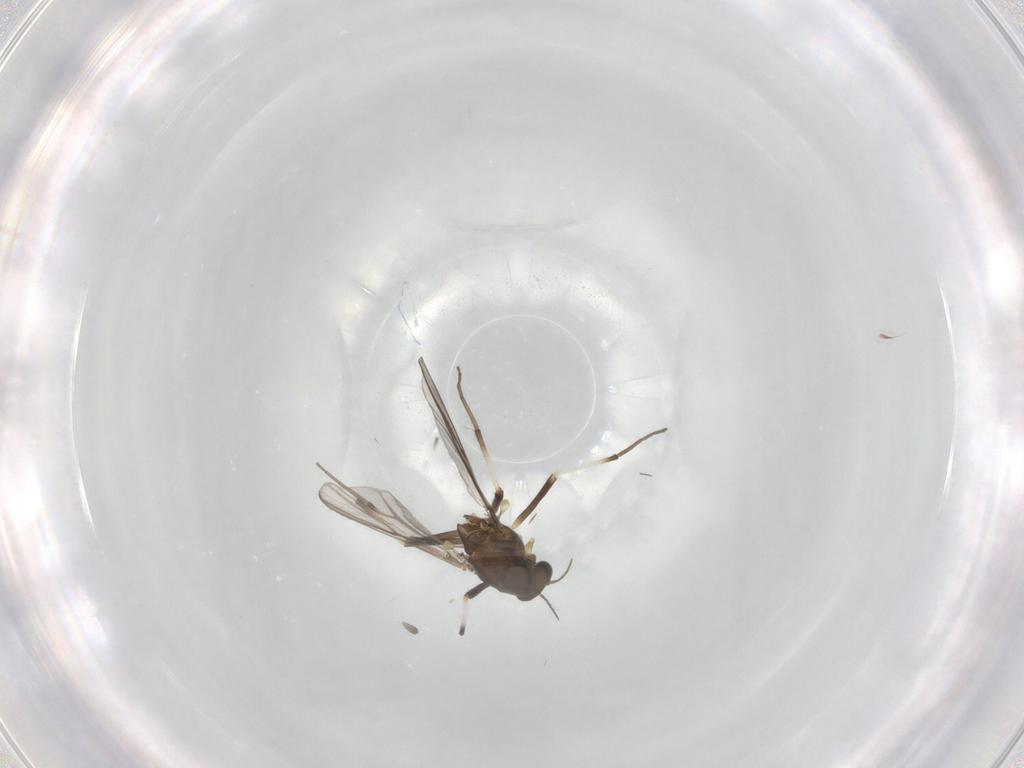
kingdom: Animalia
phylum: Arthropoda
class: Insecta
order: Diptera
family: Chironomidae
